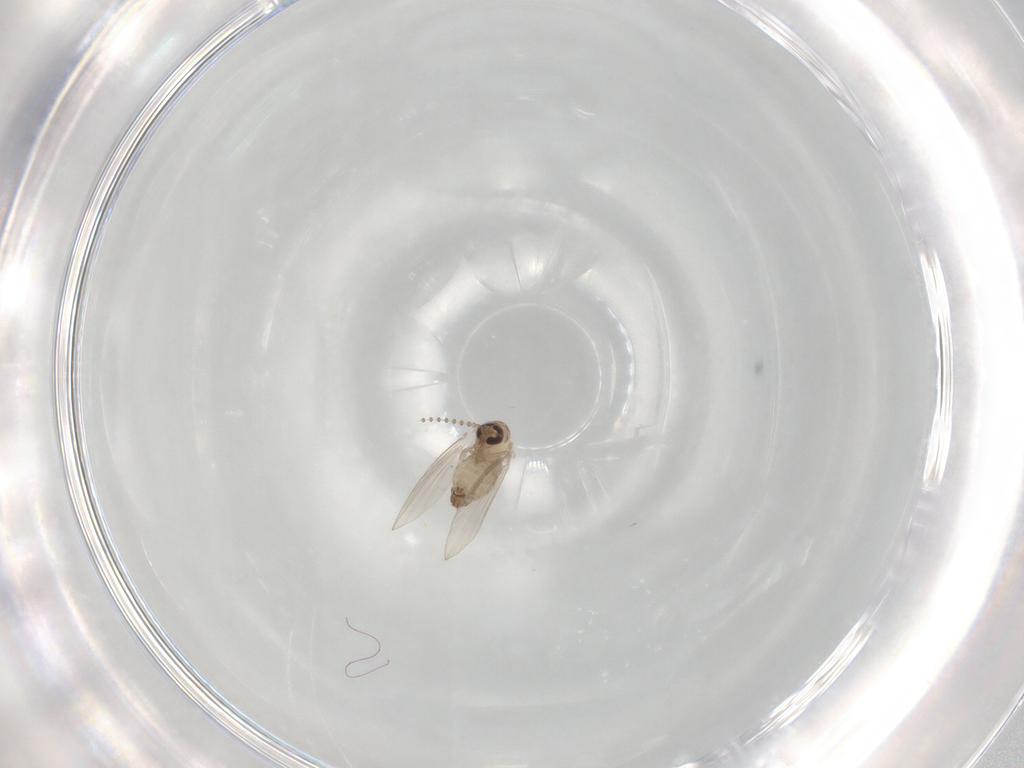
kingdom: Animalia
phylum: Arthropoda
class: Insecta
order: Diptera
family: Psychodidae
